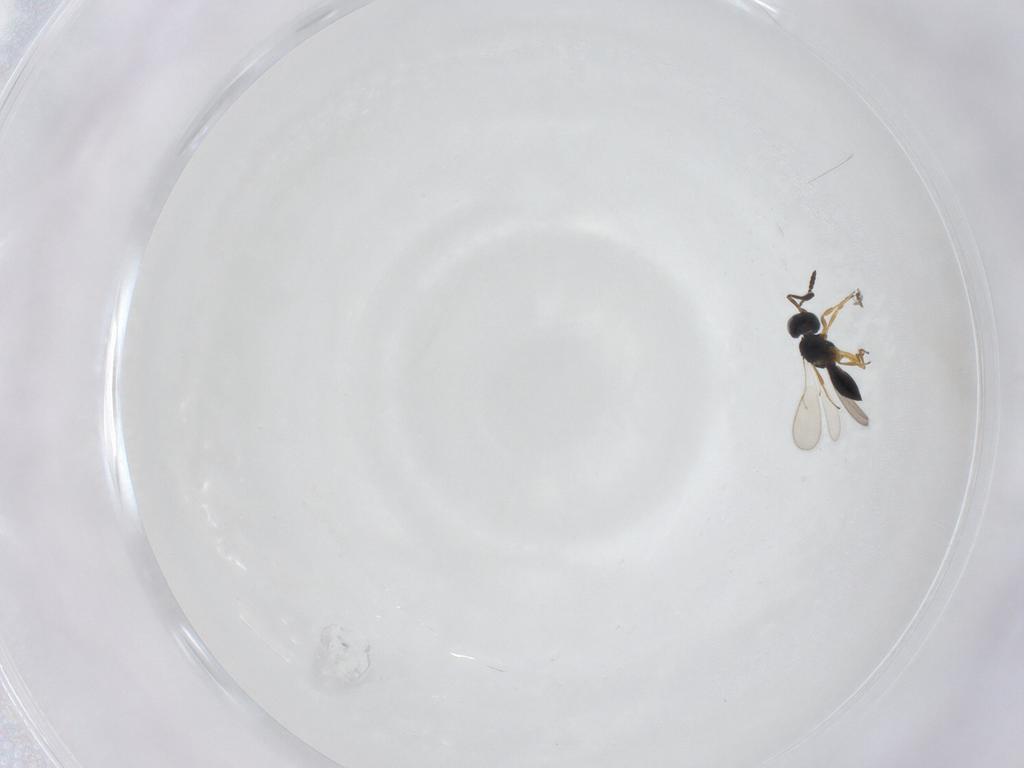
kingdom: Animalia
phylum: Arthropoda
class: Insecta
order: Hymenoptera
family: Scelionidae
